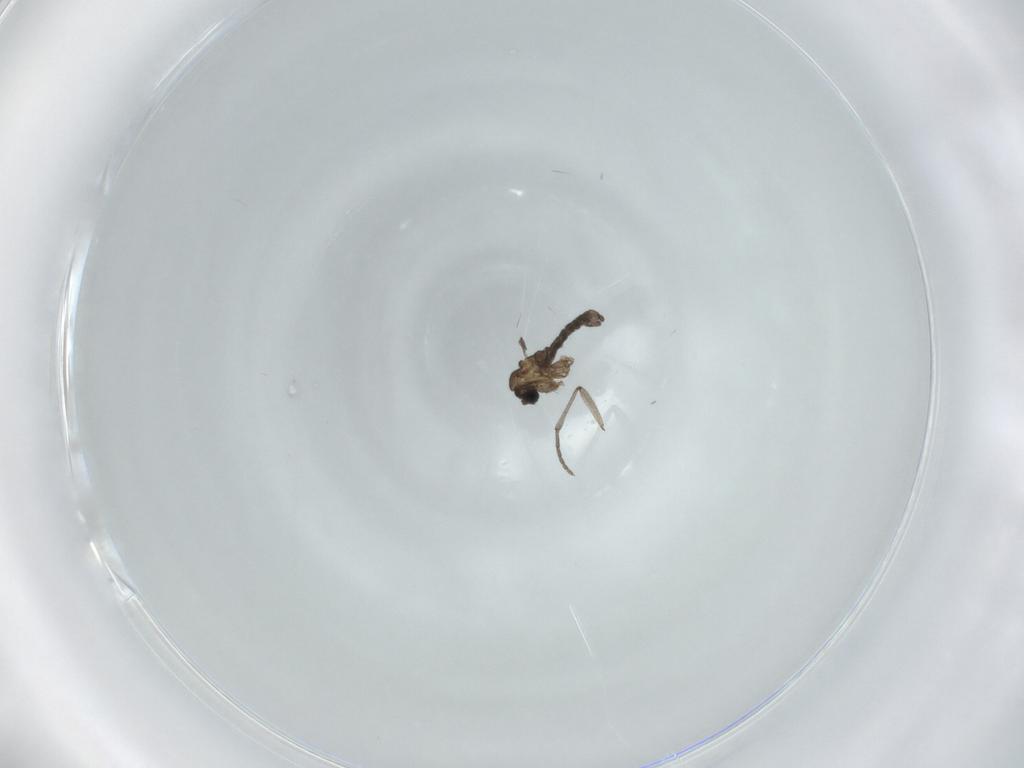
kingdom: Animalia
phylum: Arthropoda
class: Insecta
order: Diptera
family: Sciaridae
